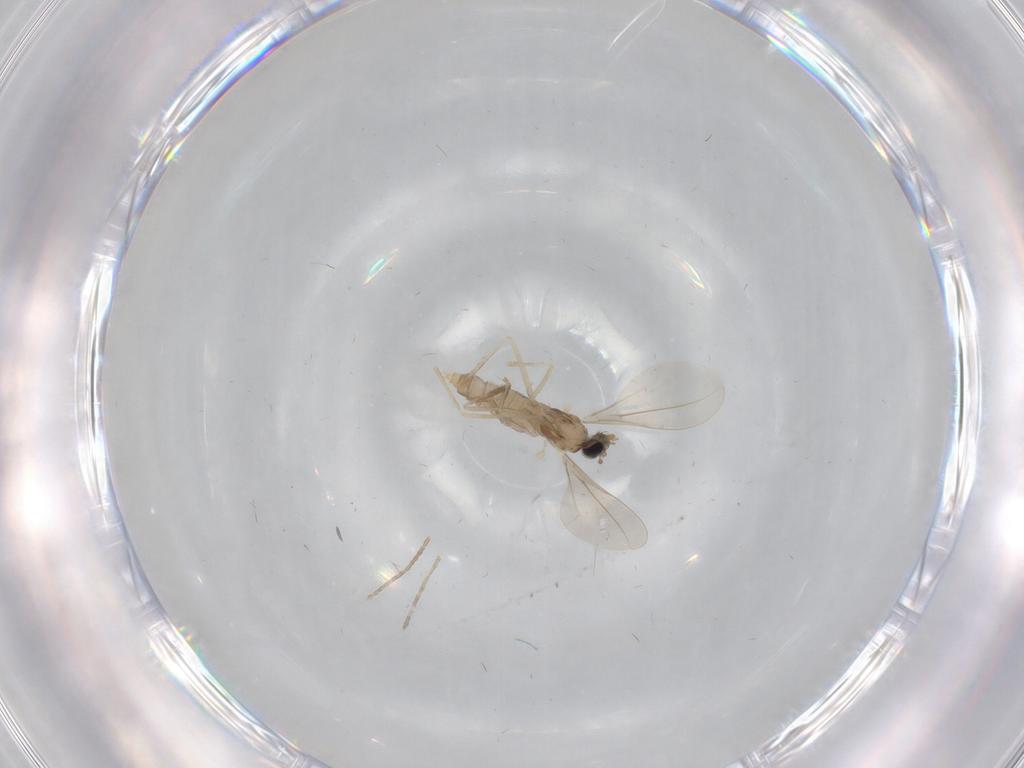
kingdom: Animalia
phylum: Arthropoda
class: Insecta
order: Diptera
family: Cecidomyiidae
